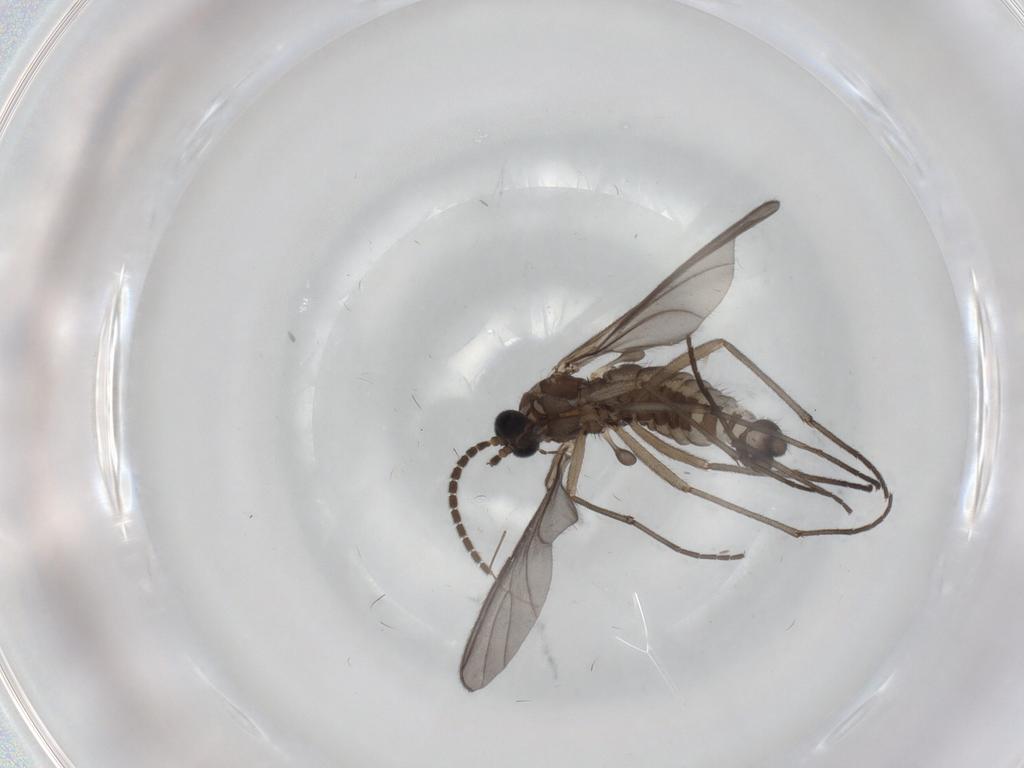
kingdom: Animalia
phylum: Arthropoda
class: Insecta
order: Diptera
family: Sciaridae
